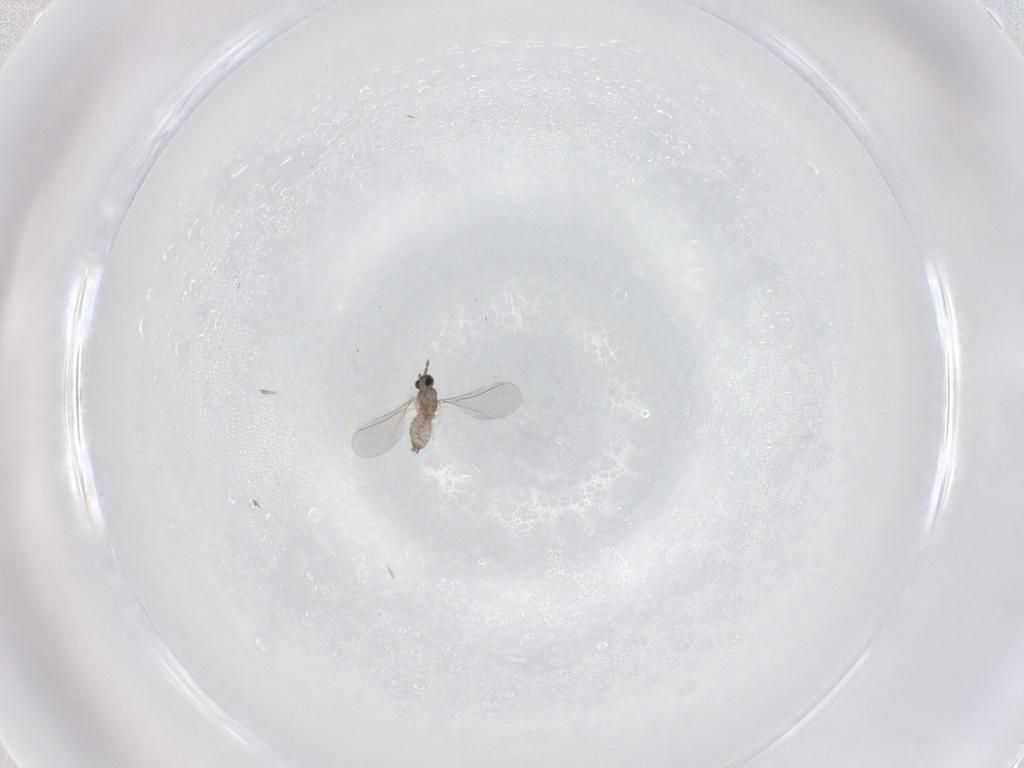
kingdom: Animalia
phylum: Arthropoda
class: Insecta
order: Diptera
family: Cecidomyiidae
